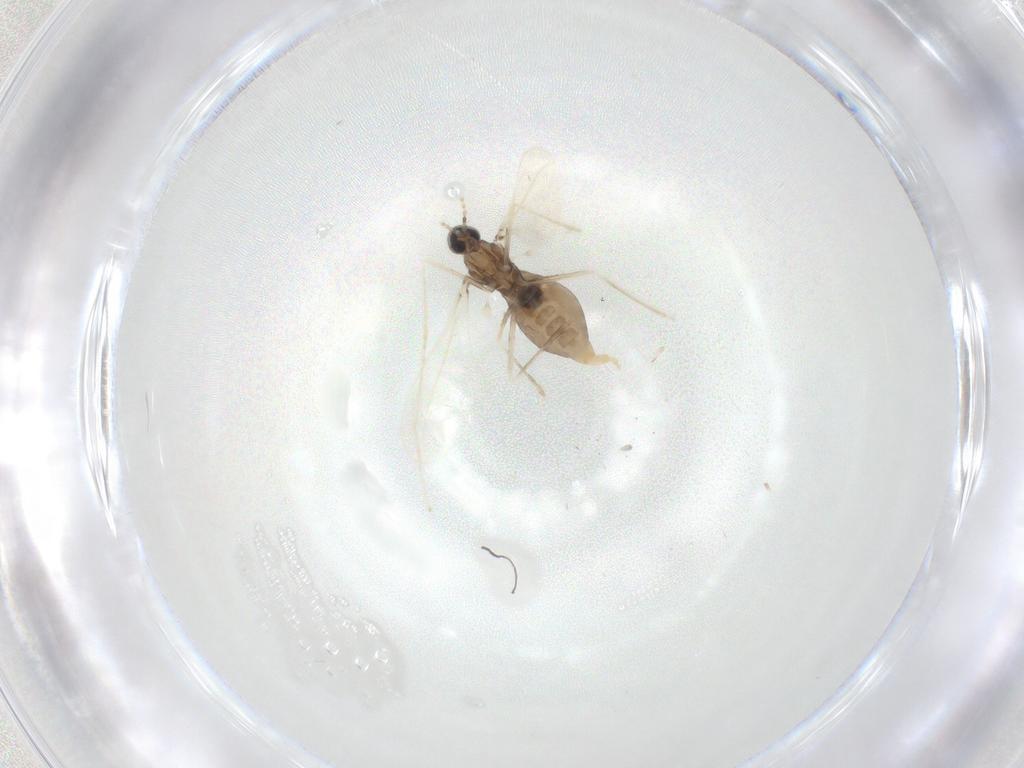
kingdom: Animalia
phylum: Arthropoda
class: Insecta
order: Diptera
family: Cecidomyiidae
